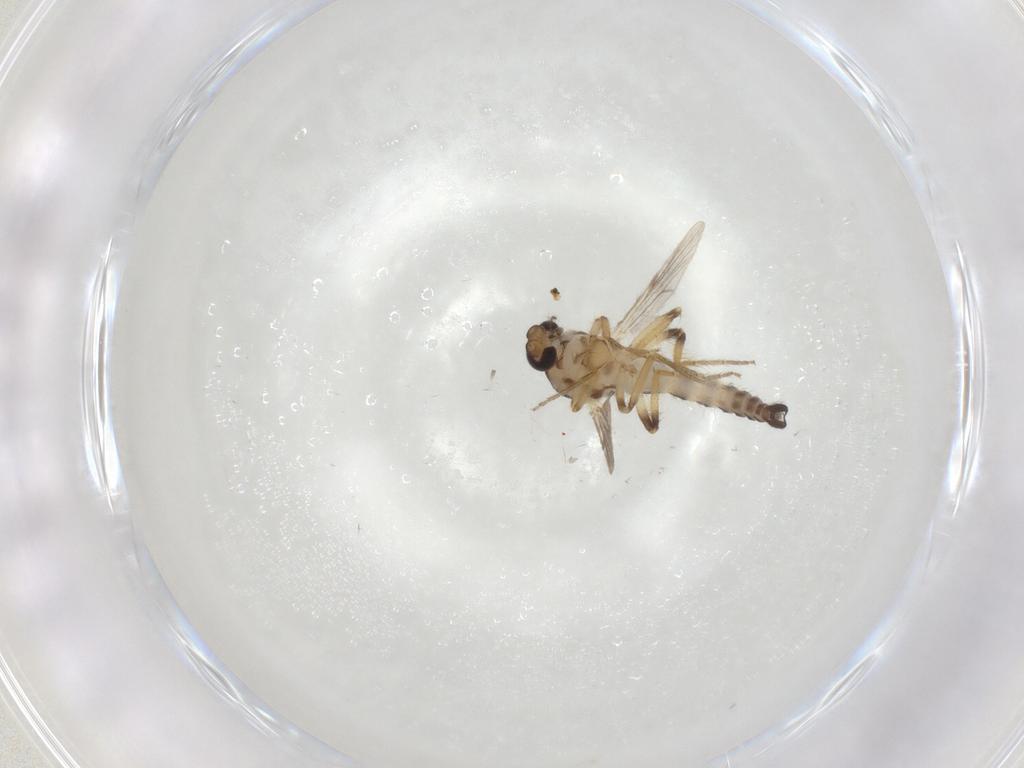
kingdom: Animalia
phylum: Arthropoda
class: Insecta
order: Diptera
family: Ceratopogonidae
